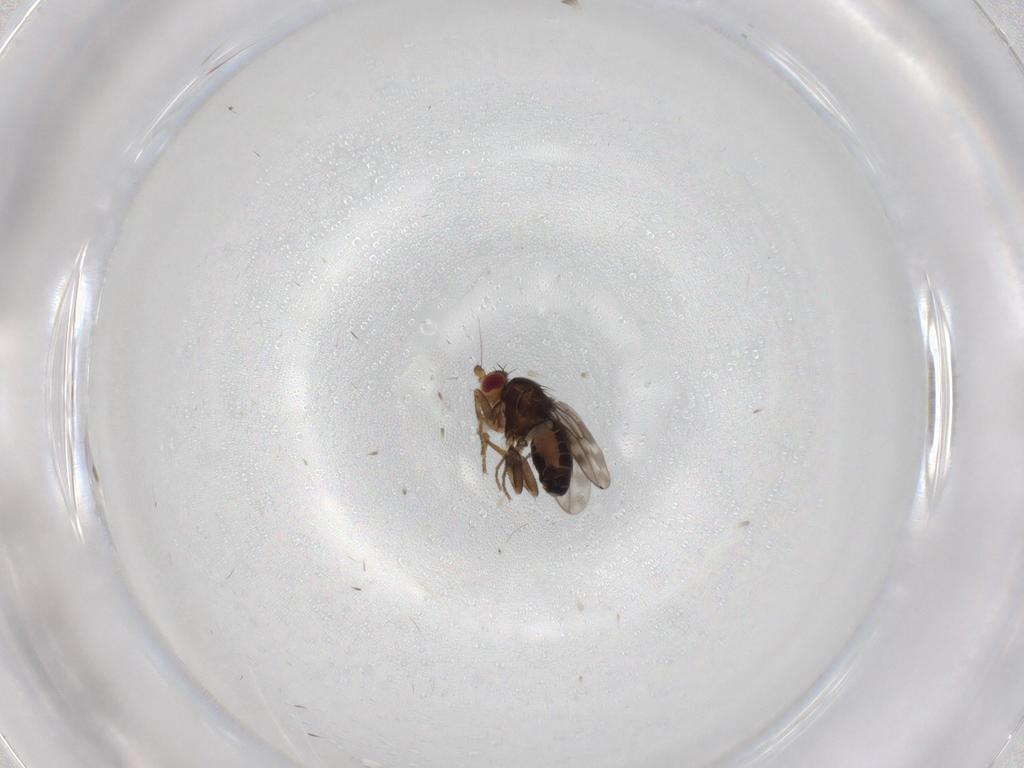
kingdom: Animalia
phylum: Arthropoda
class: Insecta
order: Diptera
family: Sphaeroceridae
